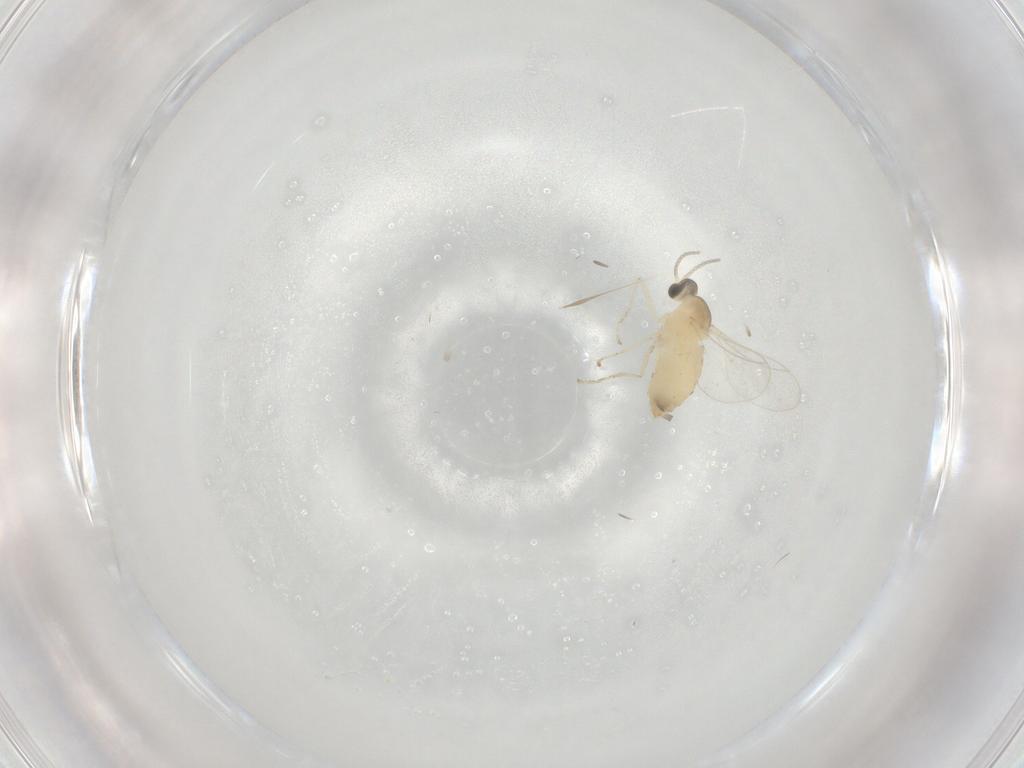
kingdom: Animalia
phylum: Arthropoda
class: Insecta
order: Diptera
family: Cecidomyiidae
